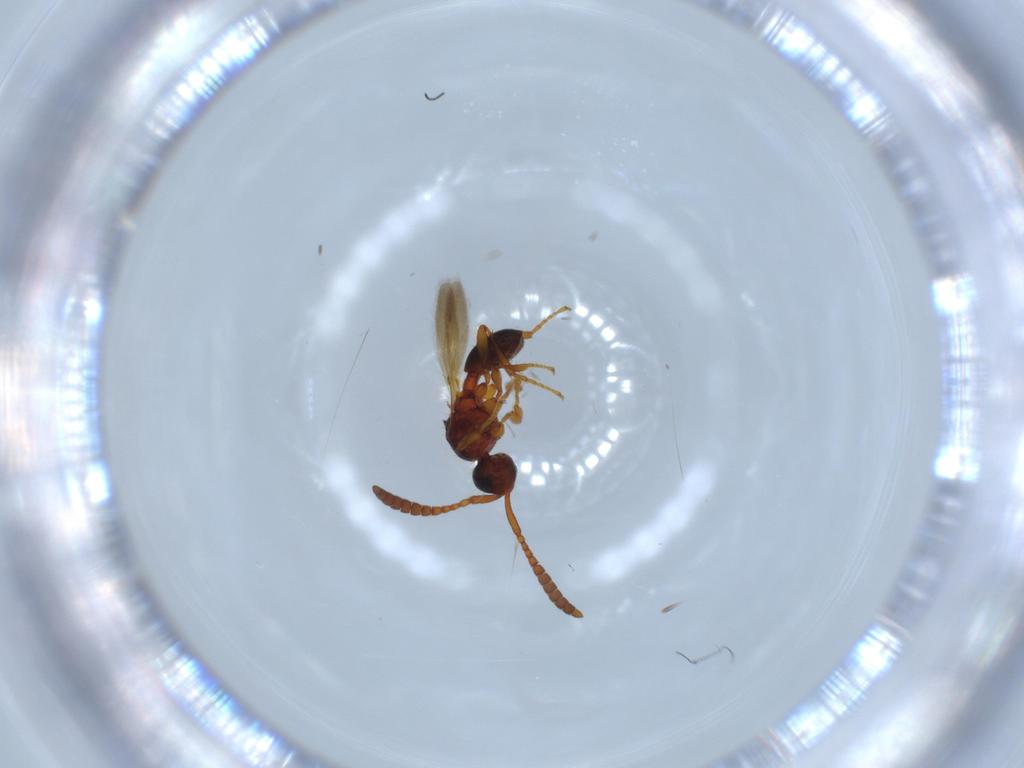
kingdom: Animalia
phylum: Arthropoda
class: Insecta
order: Hymenoptera
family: Diapriidae
